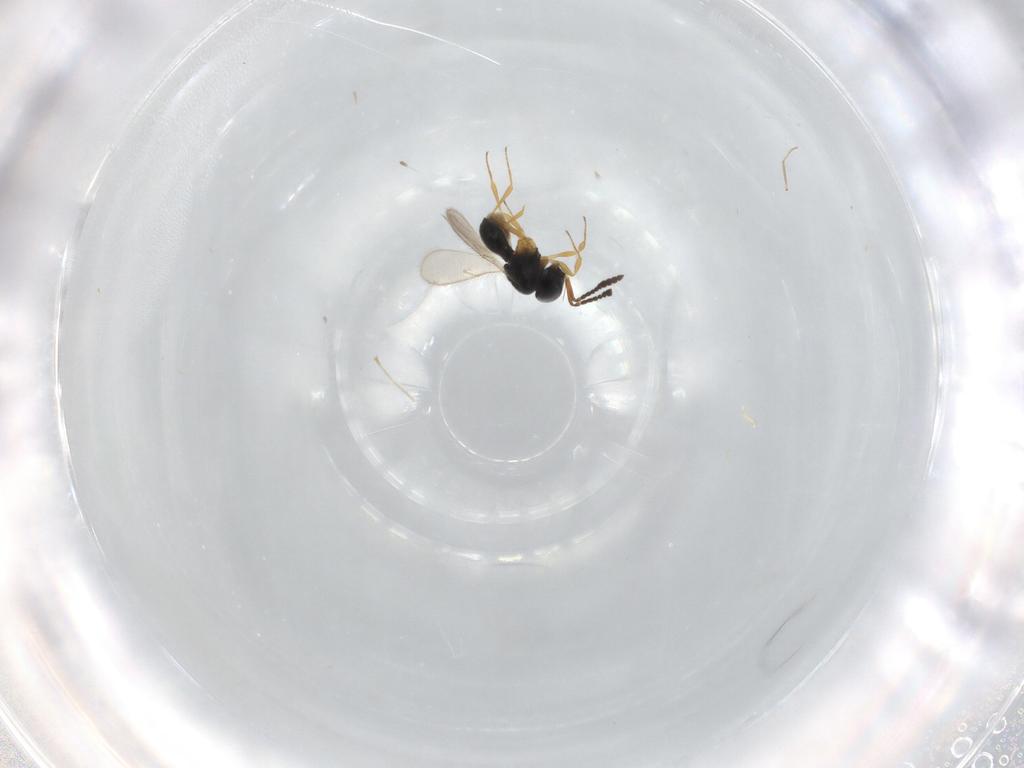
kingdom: Animalia
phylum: Arthropoda
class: Insecta
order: Hymenoptera
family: Scelionidae
